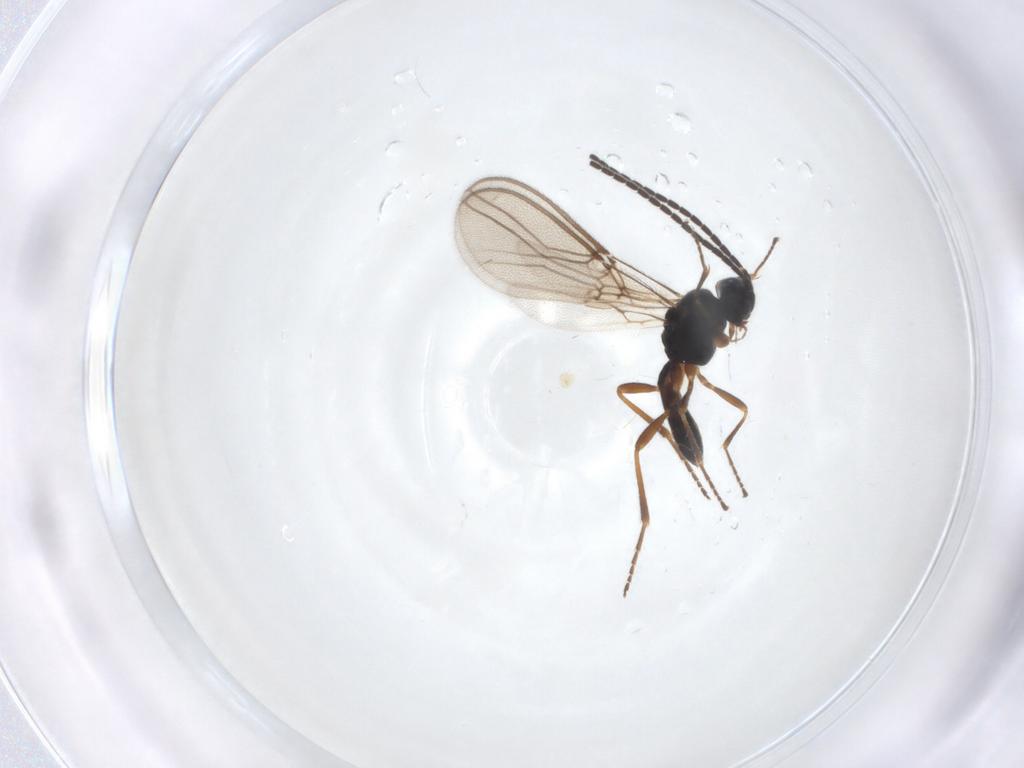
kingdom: Animalia
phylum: Arthropoda
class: Insecta
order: Hymenoptera
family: Braconidae
